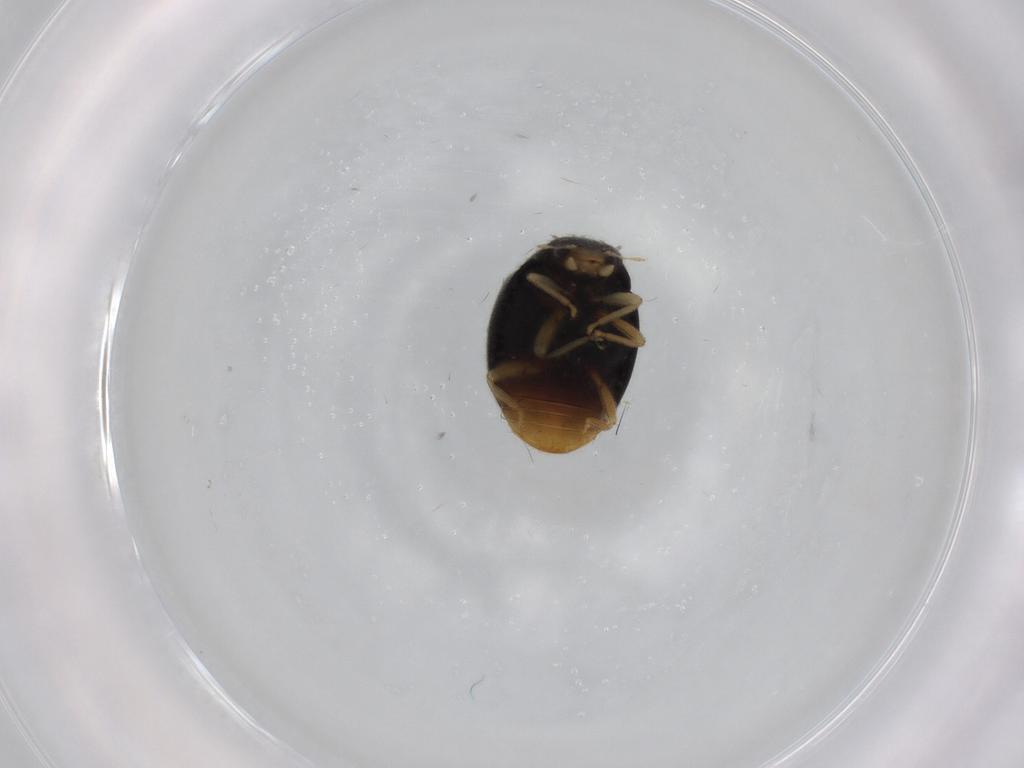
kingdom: Animalia
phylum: Arthropoda
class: Insecta
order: Coleoptera
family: Coccinellidae
